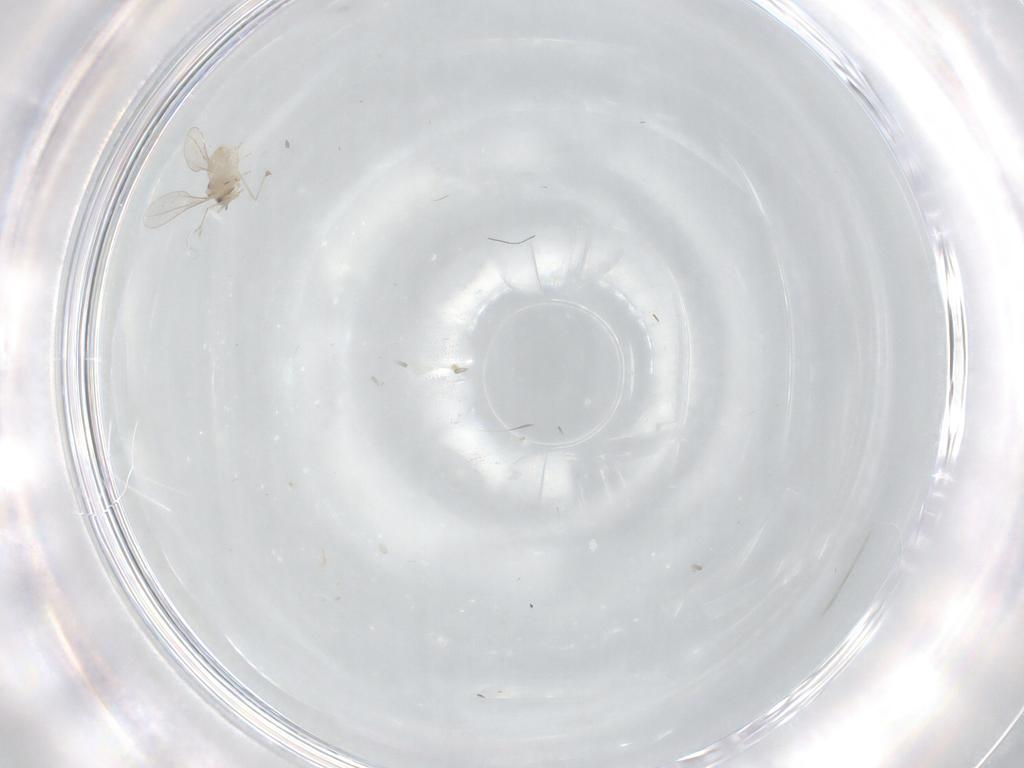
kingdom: Animalia
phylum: Arthropoda
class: Insecta
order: Diptera
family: Cecidomyiidae
